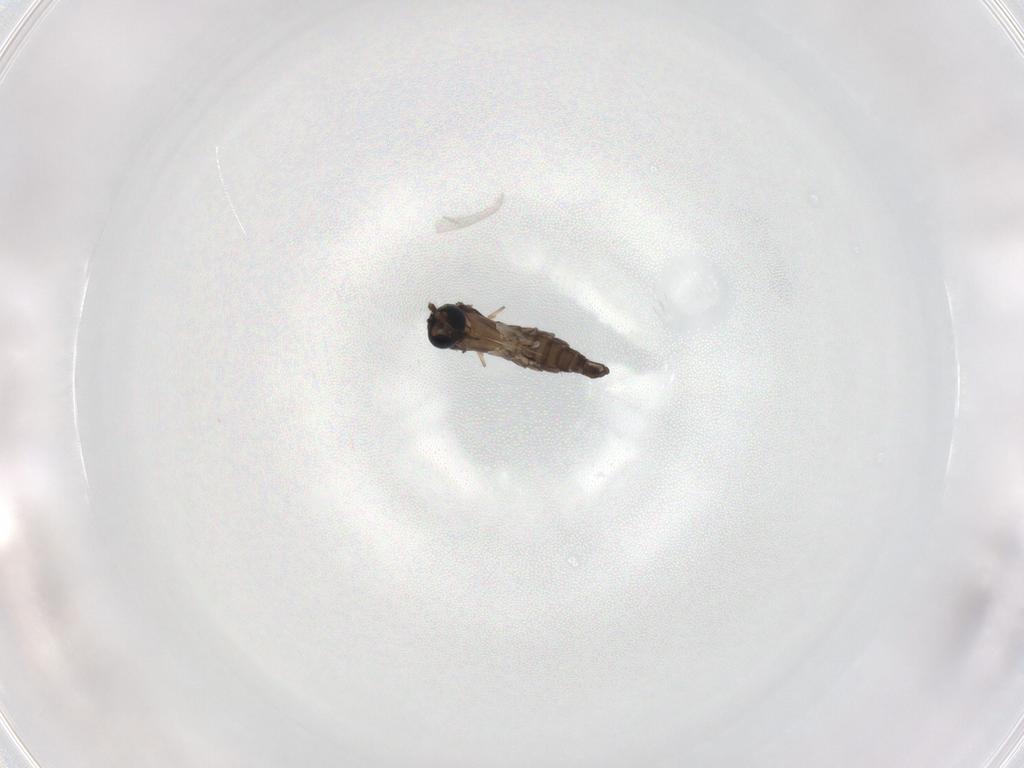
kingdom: Animalia
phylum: Arthropoda
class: Insecta
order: Diptera
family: Sciaridae
